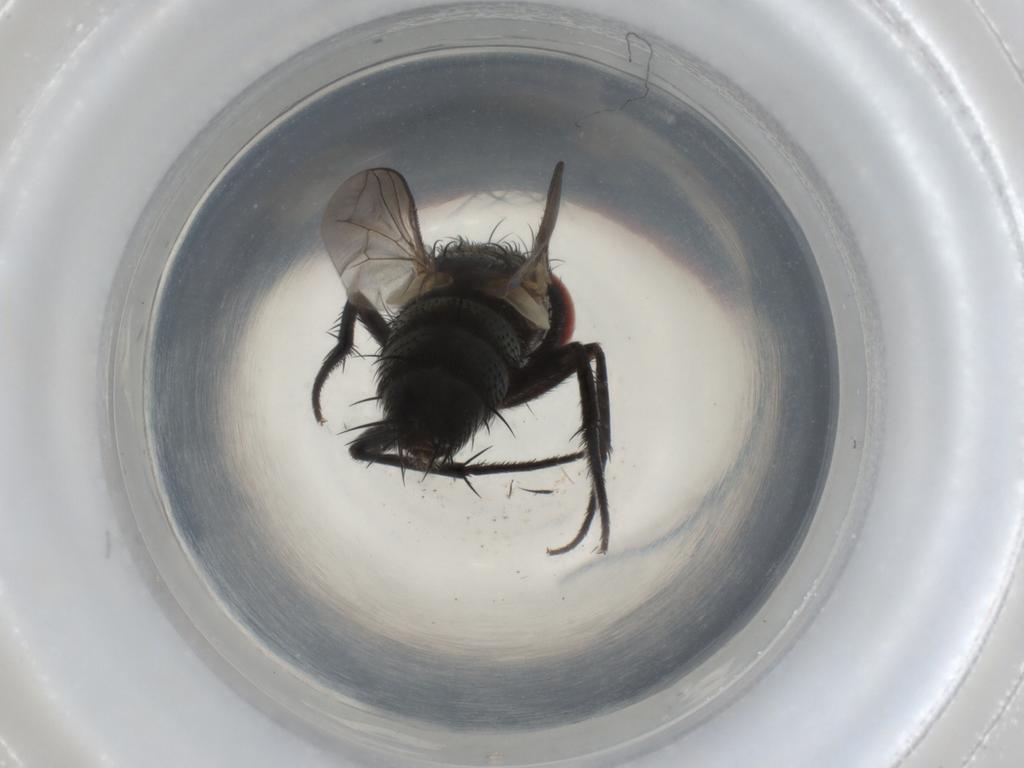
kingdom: Animalia
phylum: Arthropoda
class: Insecta
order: Diptera
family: Sarcophagidae
